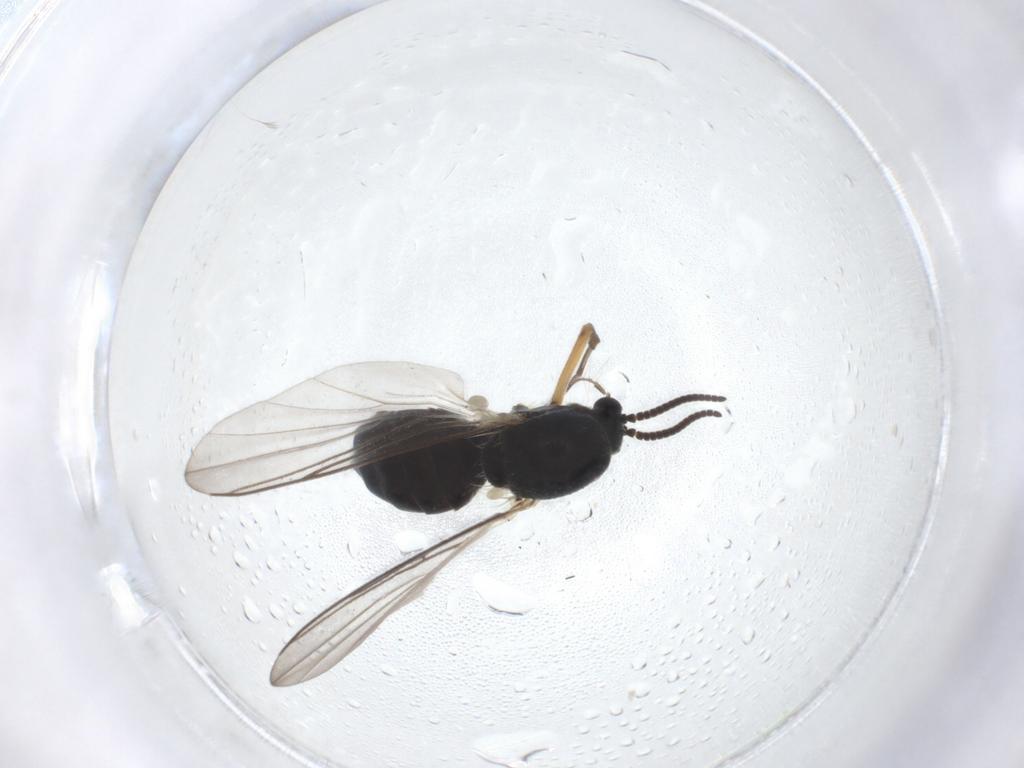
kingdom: Animalia
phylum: Arthropoda
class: Insecta
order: Diptera
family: Mycetophilidae
